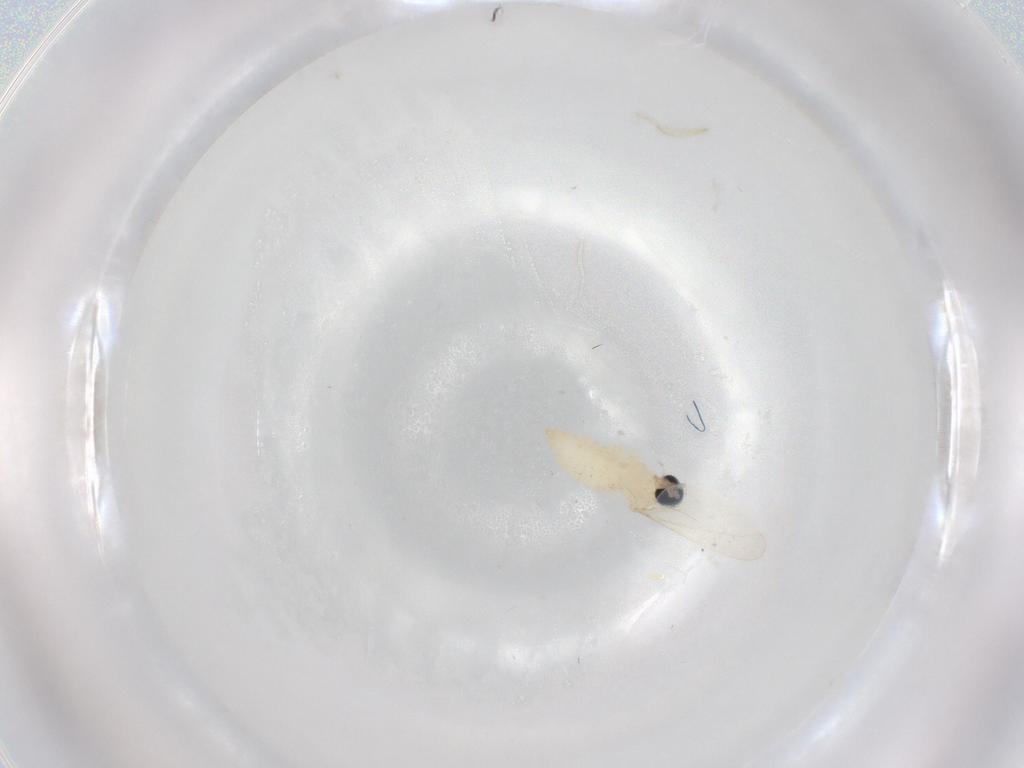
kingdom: Animalia
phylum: Arthropoda
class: Insecta
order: Diptera
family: Cecidomyiidae
